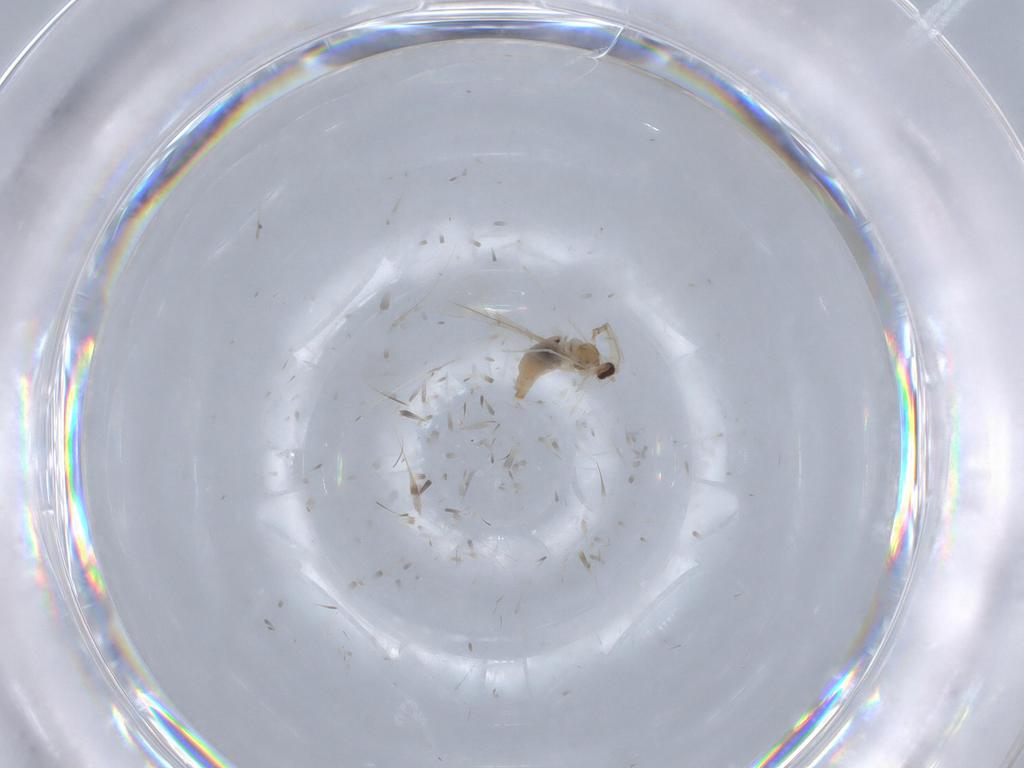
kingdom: Animalia
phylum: Arthropoda
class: Insecta
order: Diptera
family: Cecidomyiidae
